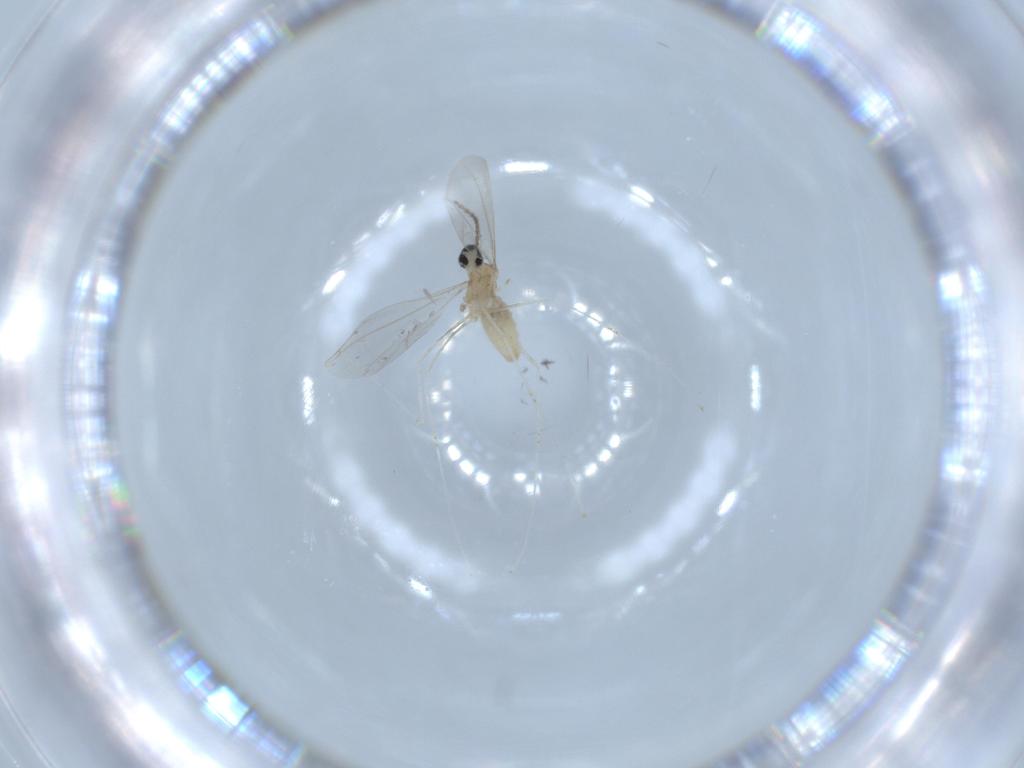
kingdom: Animalia
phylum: Arthropoda
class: Insecta
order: Diptera
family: Cecidomyiidae
